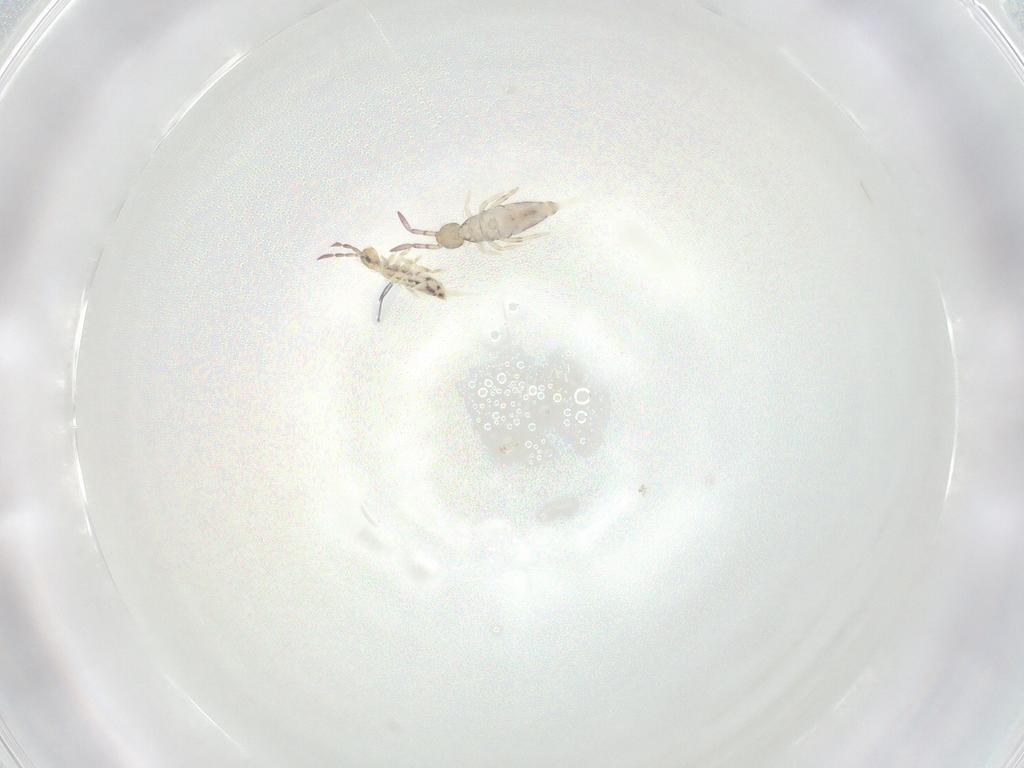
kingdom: Animalia
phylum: Arthropoda
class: Collembola
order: Entomobryomorpha
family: Entomobryidae
